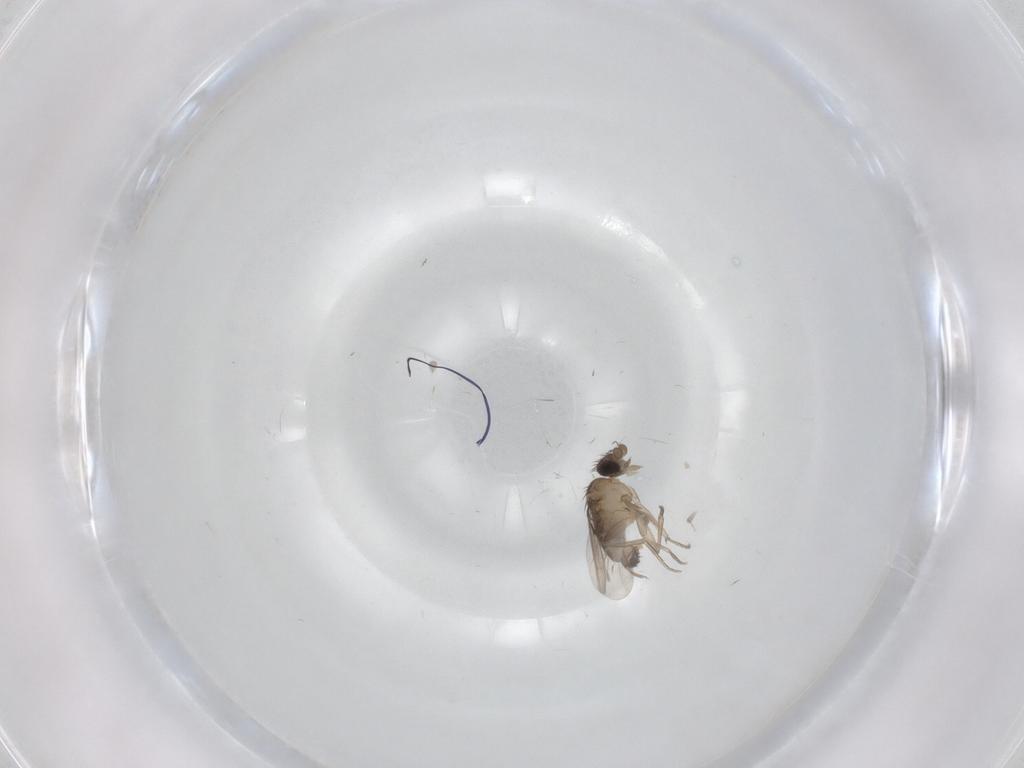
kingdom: Animalia
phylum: Arthropoda
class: Insecta
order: Diptera
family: Phoridae
